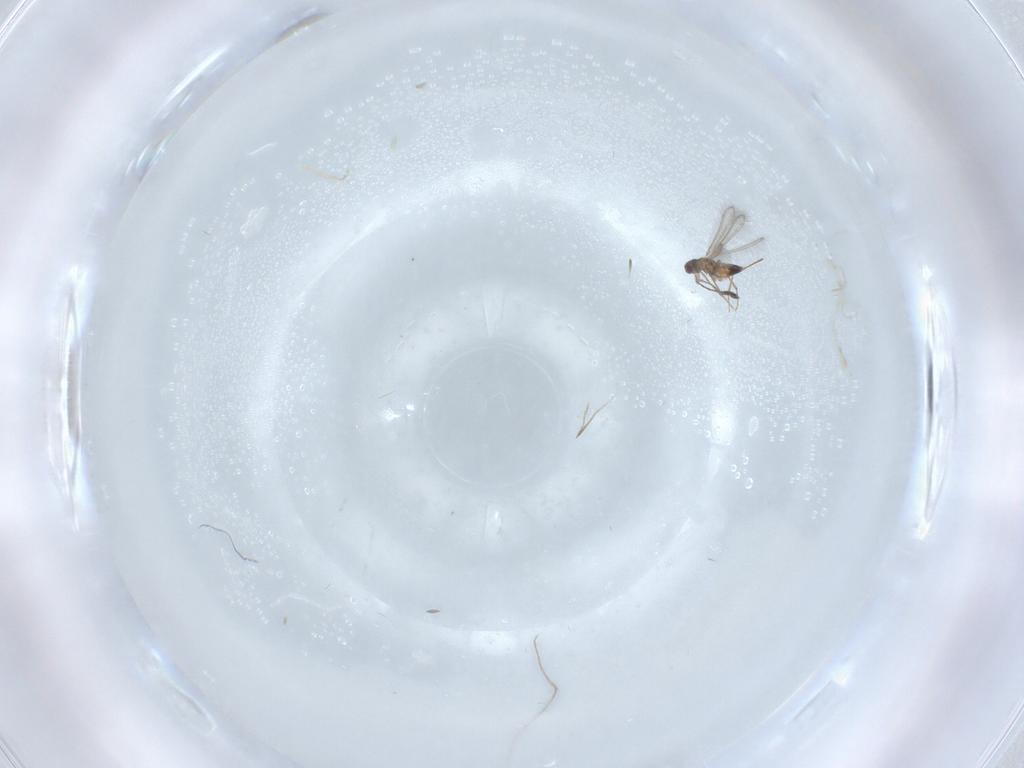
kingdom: Animalia
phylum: Arthropoda
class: Insecta
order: Hymenoptera
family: Mymaridae
